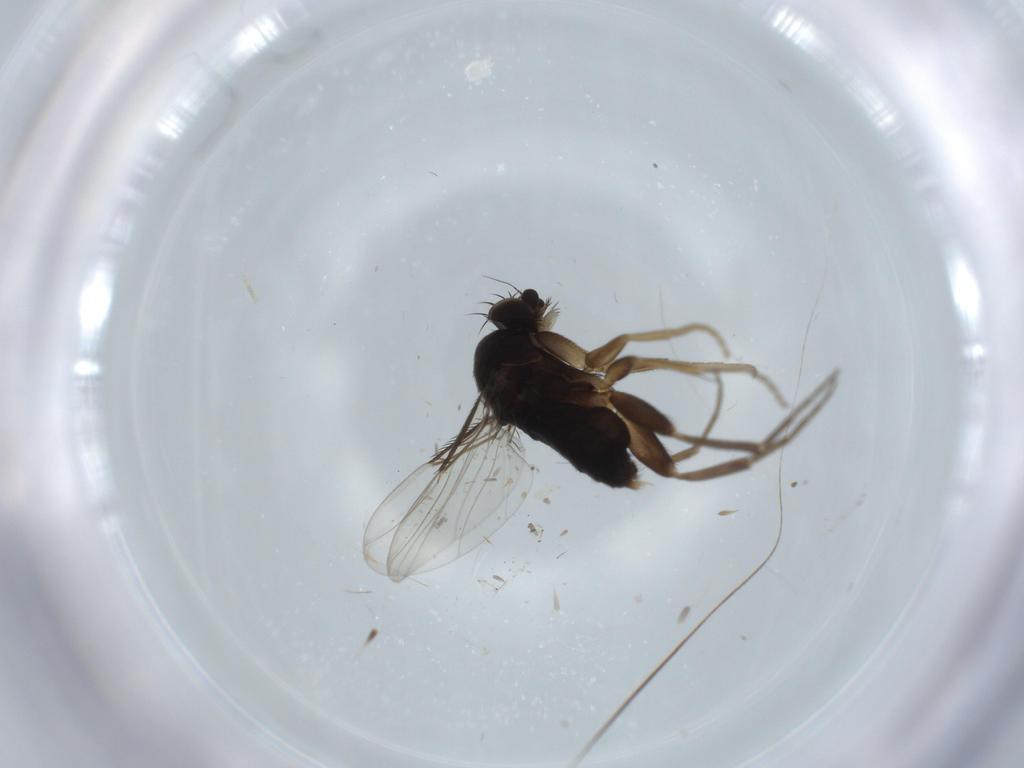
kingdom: Animalia
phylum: Arthropoda
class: Insecta
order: Diptera
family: Phoridae
